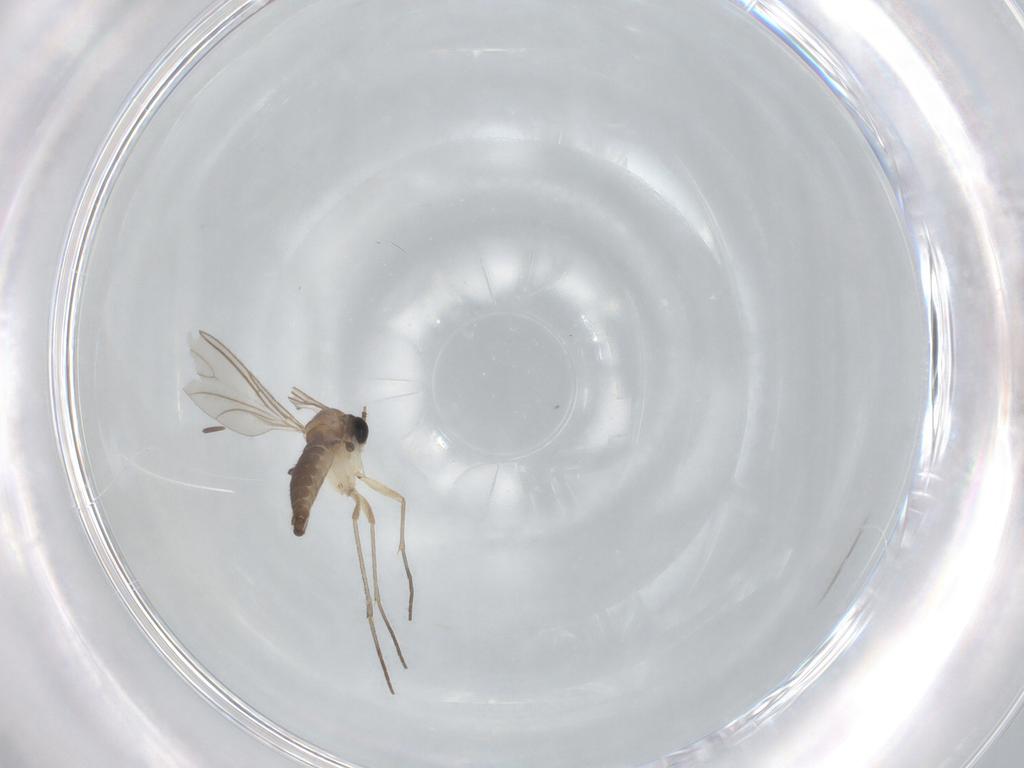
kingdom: Animalia
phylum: Arthropoda
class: Insecta
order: Diptera
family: Sciaridae
